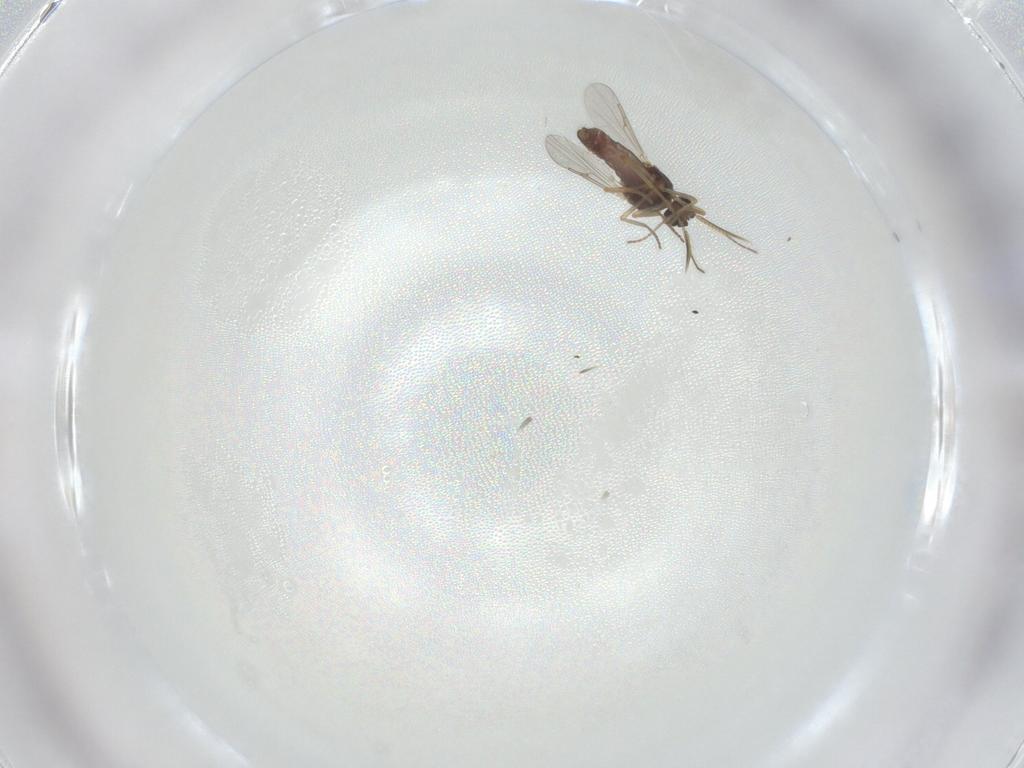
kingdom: Animalia
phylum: Arthropoda
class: Insecta
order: Diptera
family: Phoridae
